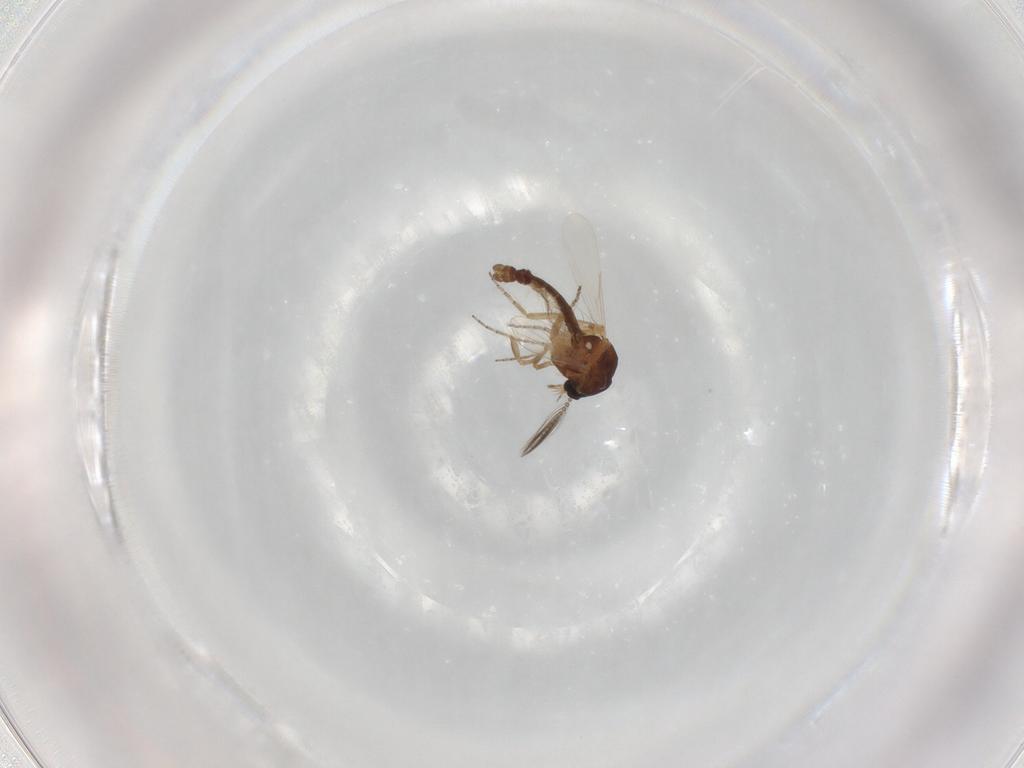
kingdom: Animalia
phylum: Arthropoda
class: Insecta
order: Diptera
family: Ceratopogonidae
